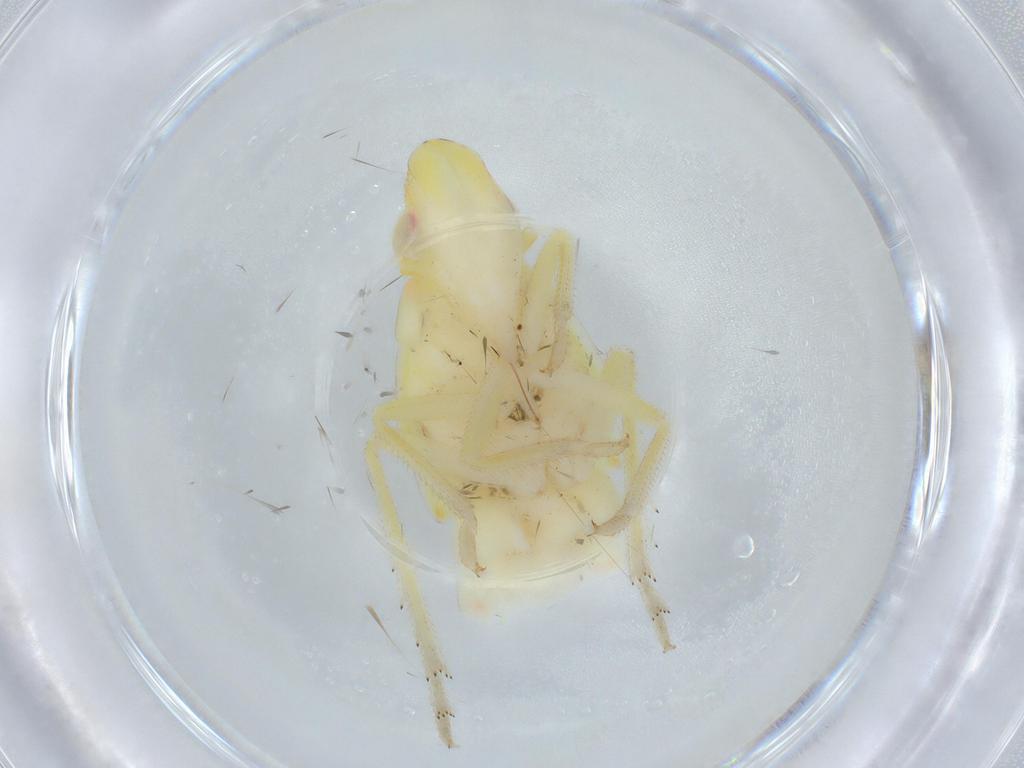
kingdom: Animalia
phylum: Arthropoda
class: Insecta
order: Hemiptera
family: Tropiduchidae
